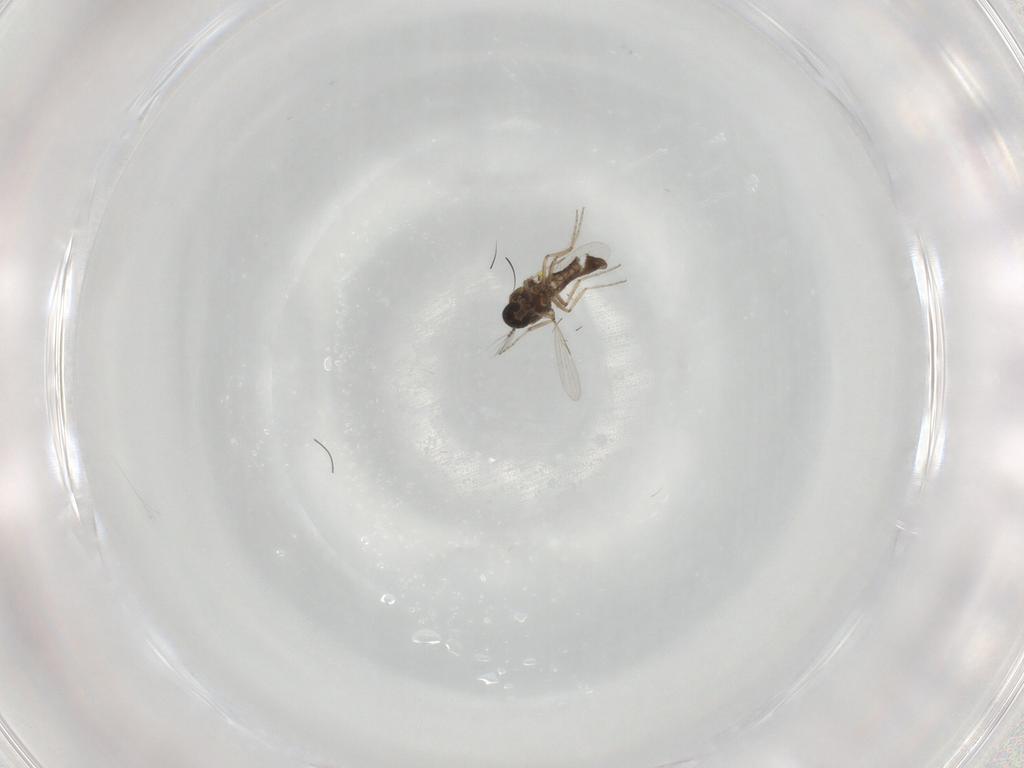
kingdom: Animalia
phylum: Arthropoda
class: Insecta
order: Diptera
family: Ceratopogonidae
